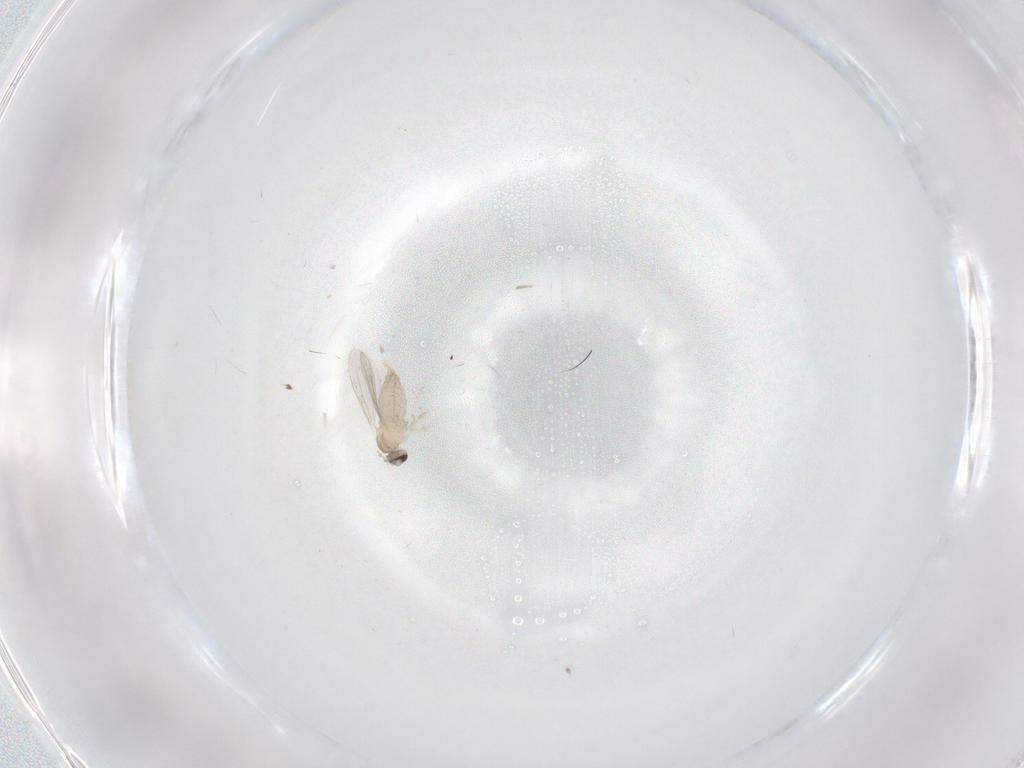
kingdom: Animalia
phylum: Arthropoda
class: Insecta
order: Diptera
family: Cecidomyiidae
